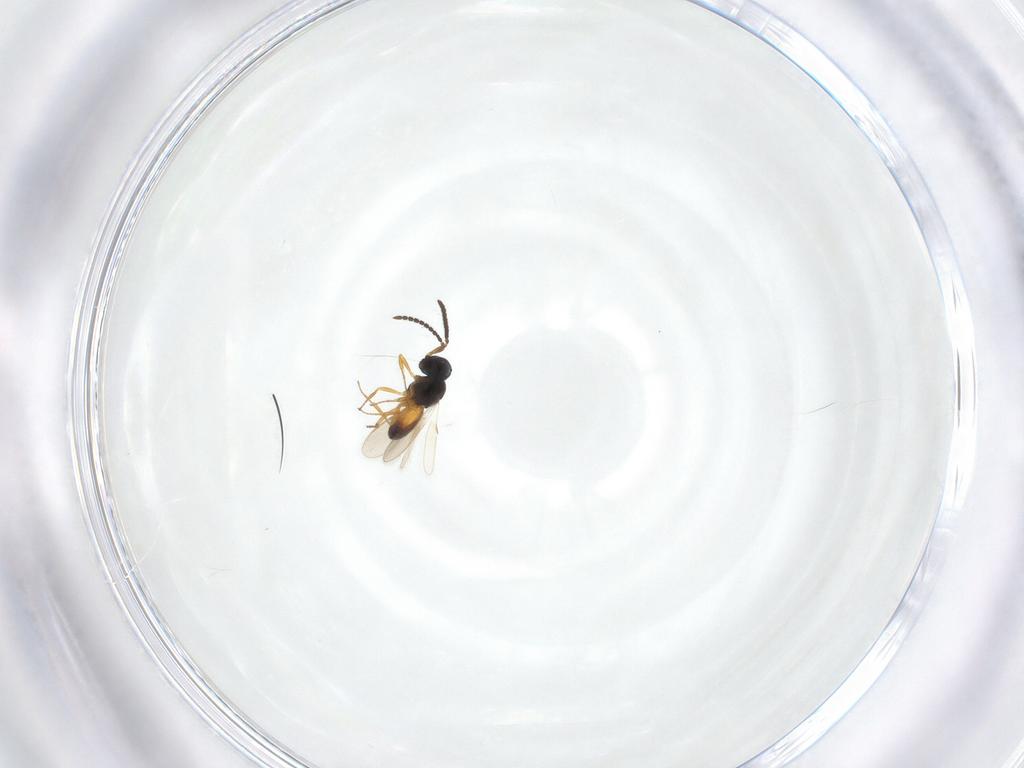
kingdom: Animalia
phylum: Arthropoda
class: Insecta
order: Hymenoptera
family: Scelionidae
